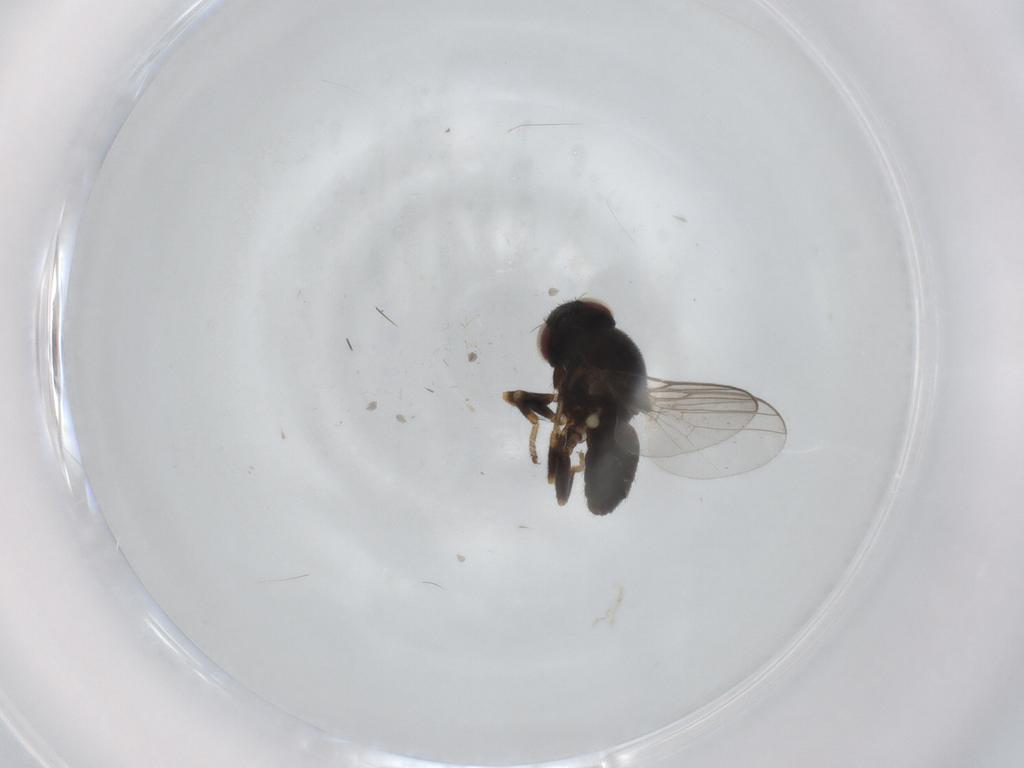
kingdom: Animalia
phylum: Arthropoda
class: Insecta
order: Diptera
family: Chloropidae
